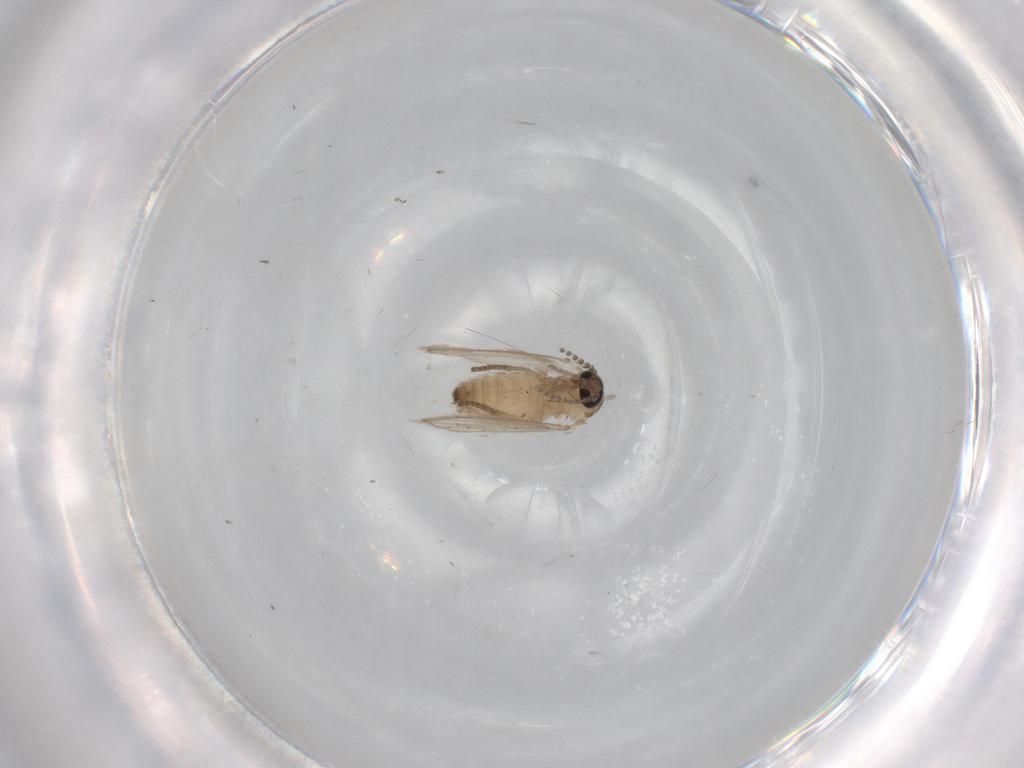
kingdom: Animalia
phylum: Arthropoda
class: Insecta
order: Diptera
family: Psychodidae
